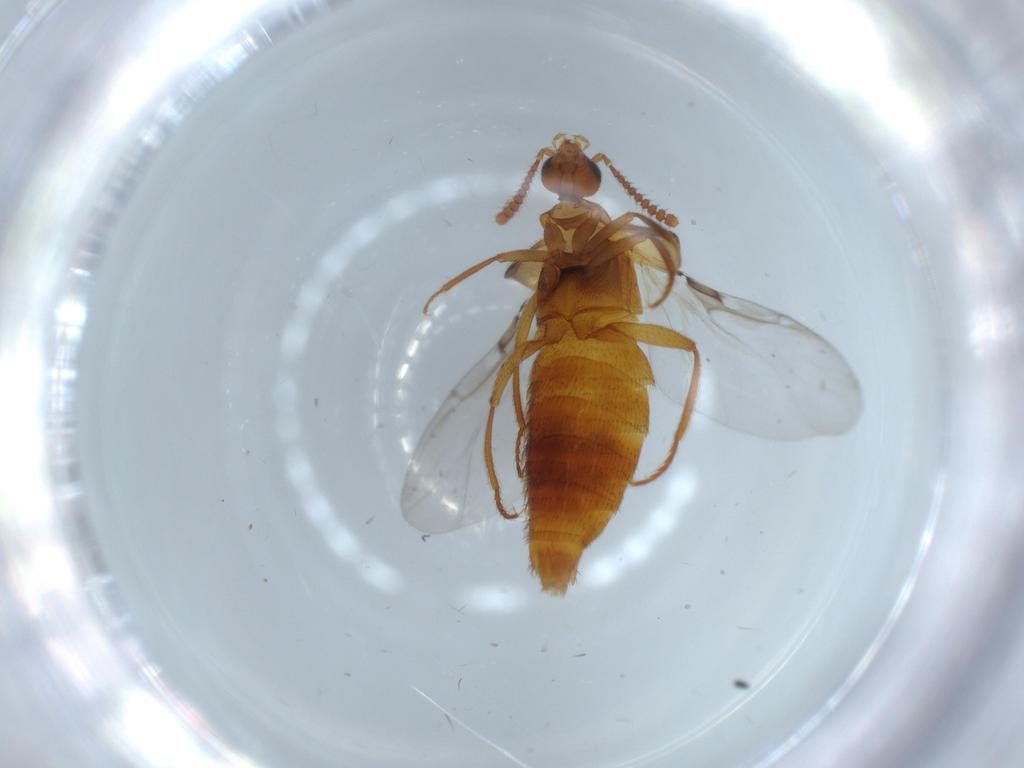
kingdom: Animalia
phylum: Arthropoda
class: Insecta
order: Coleoptera
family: Staphylinidae
